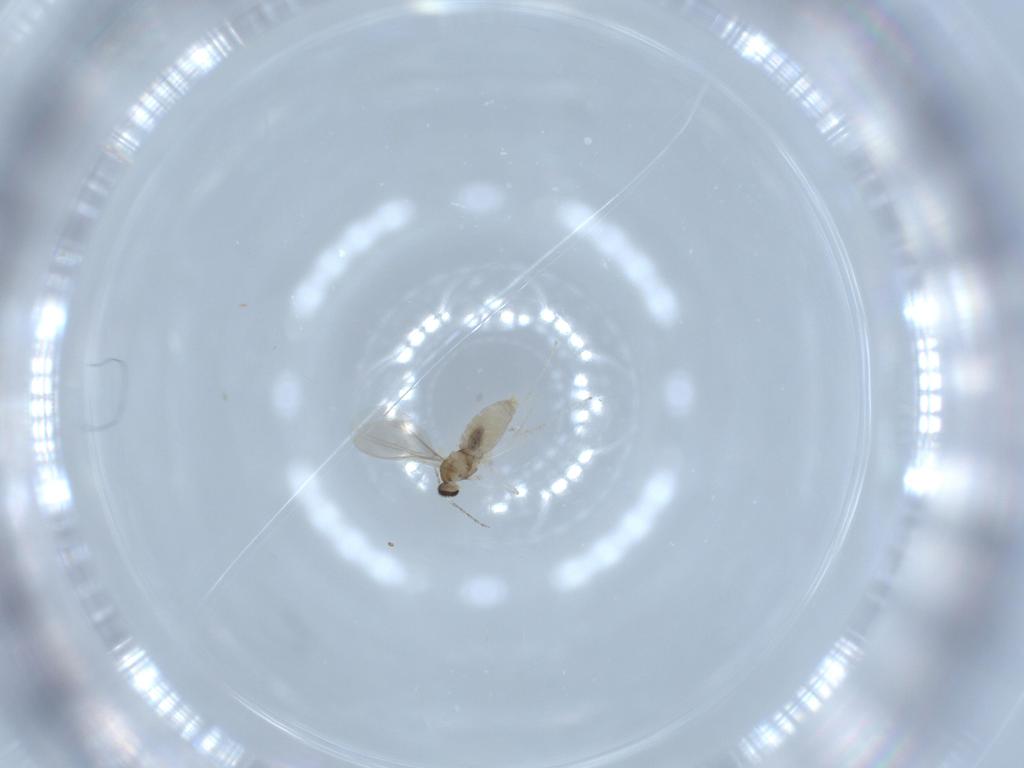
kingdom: Animalia
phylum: Arthropoda
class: Insecta
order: Diptera
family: Cecidomyiidae
